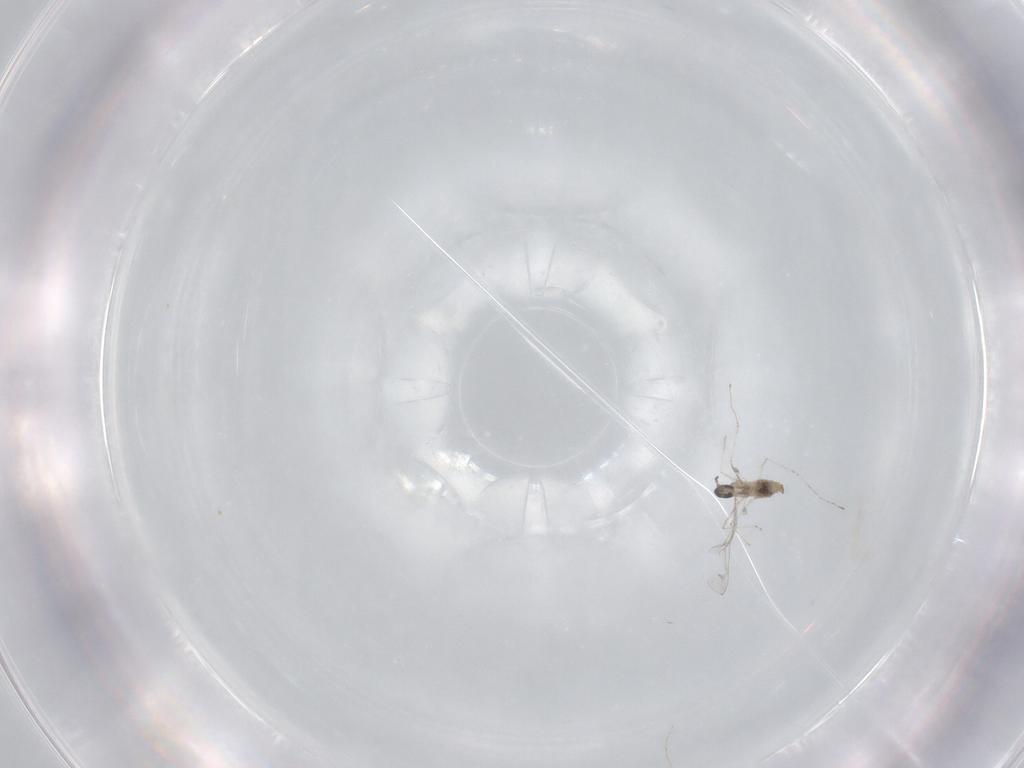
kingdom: Animalia
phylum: Arthropoda
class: Insecta
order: Diptera
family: Cecidomyiidae
